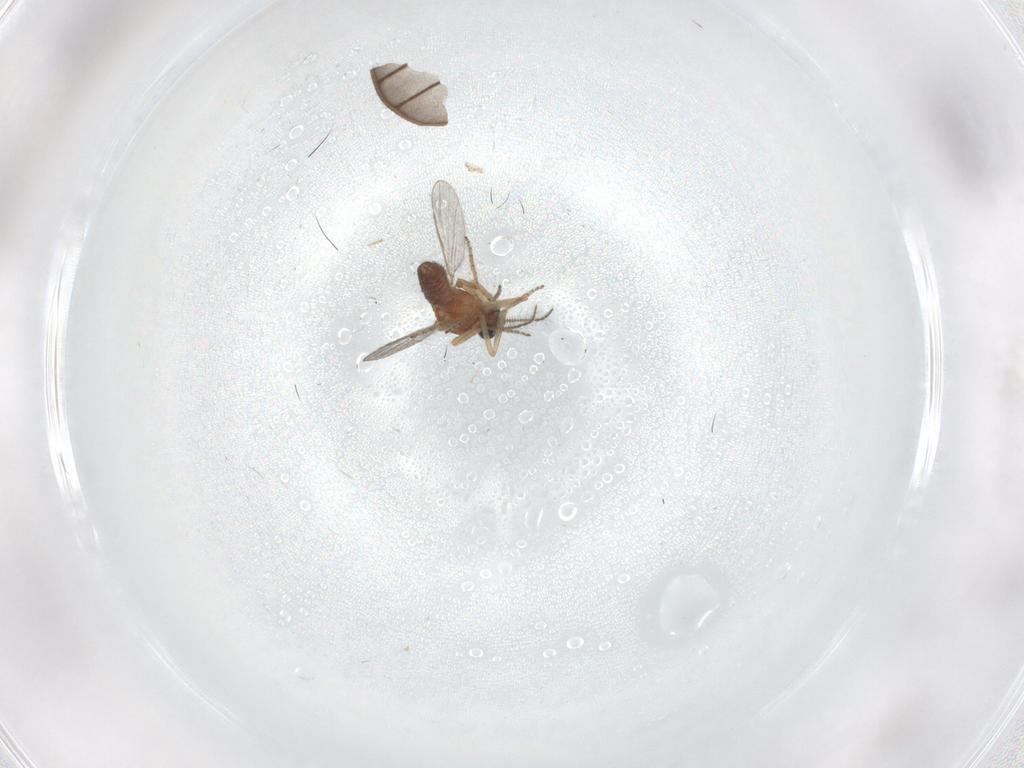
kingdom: Animalia
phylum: Arthropoda
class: Insecta
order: Diptera
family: Ceratopogonidae
